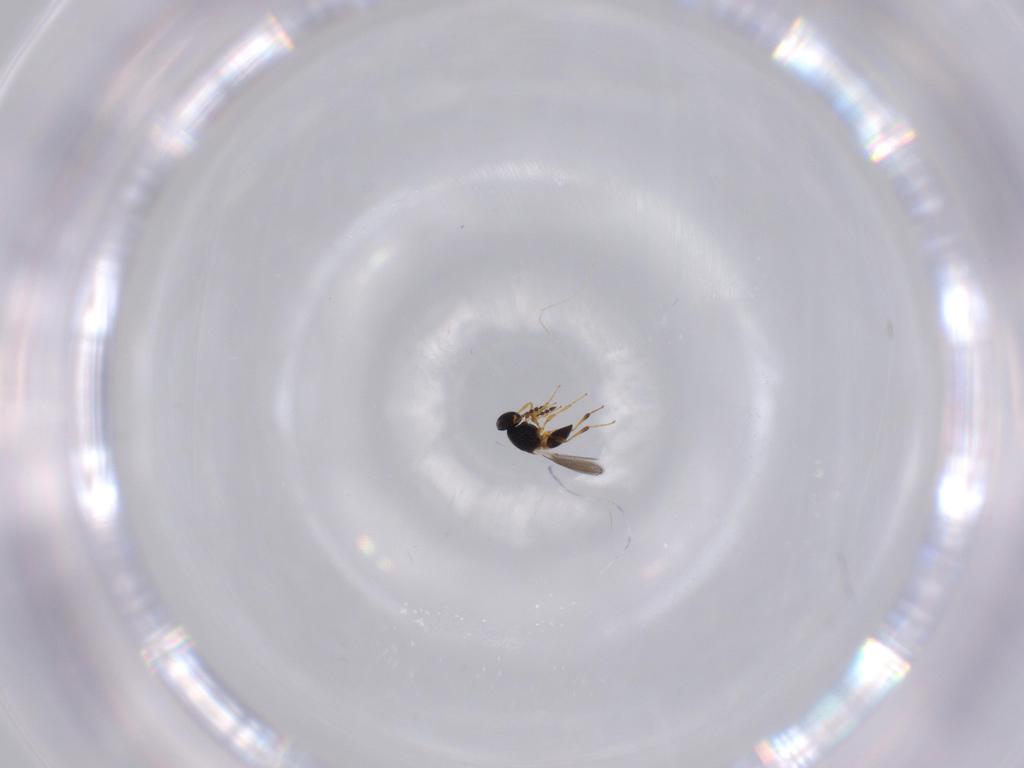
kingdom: Animalia
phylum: Arthropoda
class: Insecta
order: Hymenoptera
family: Platygastridae
